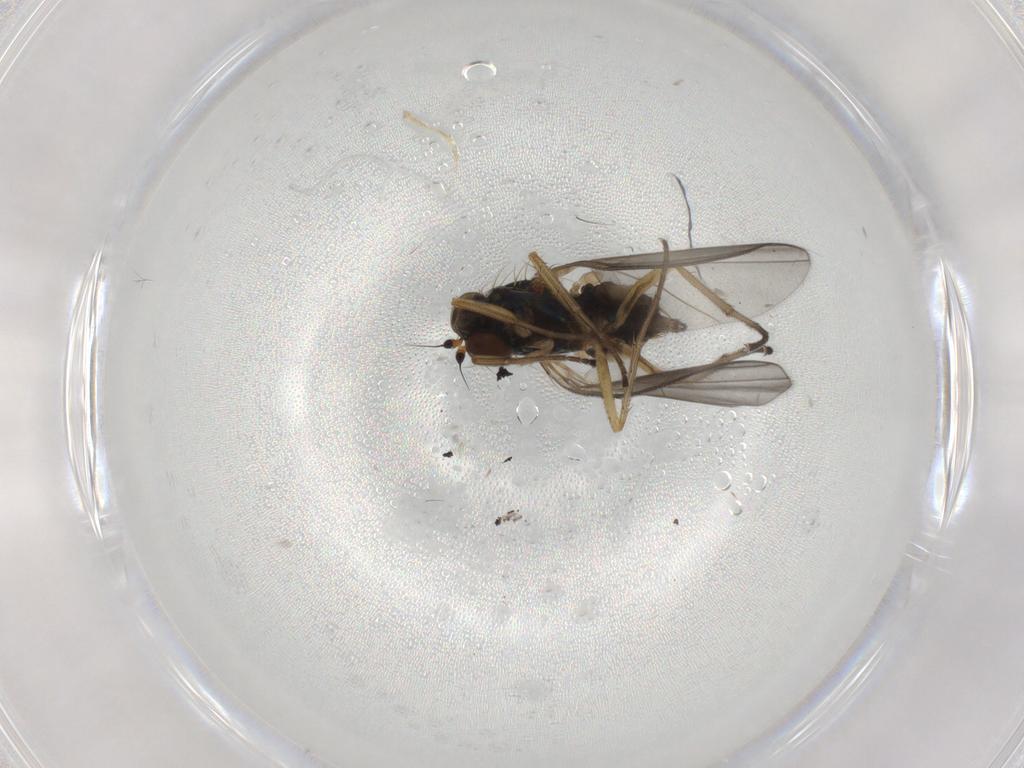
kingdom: Animalia
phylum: Arthropoda
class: Insecta
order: Diptera
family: Dolichopodidae
